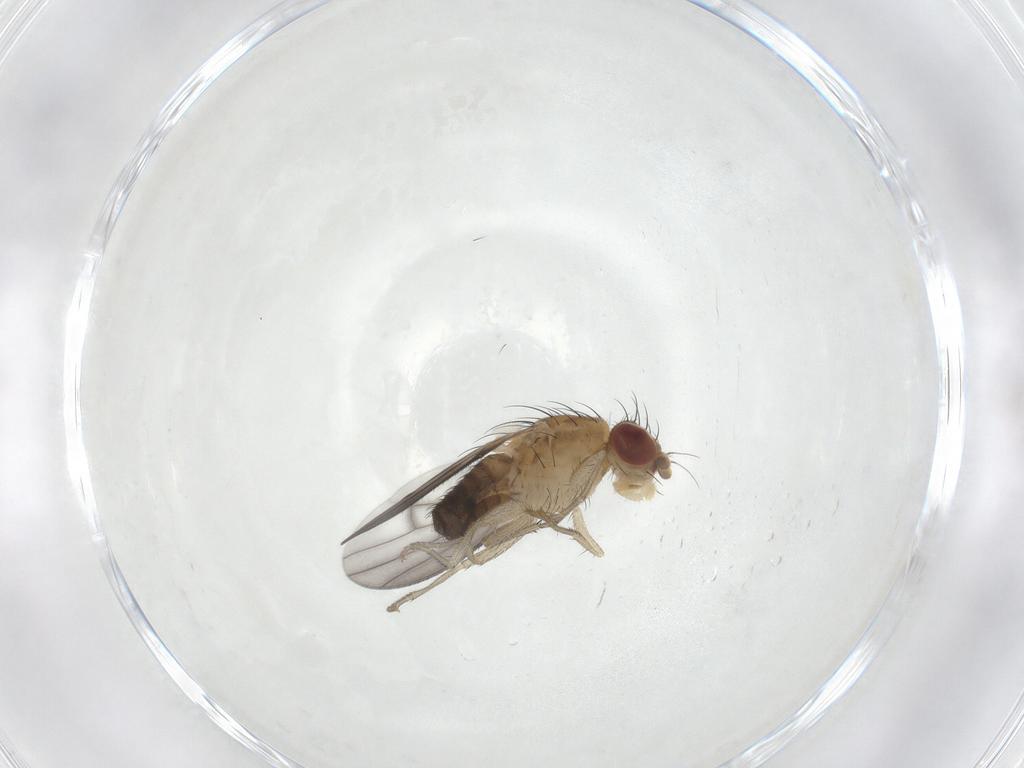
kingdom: Animalia
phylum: Arthropoda
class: Insecta
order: Diptera
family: Heleomyzidae
